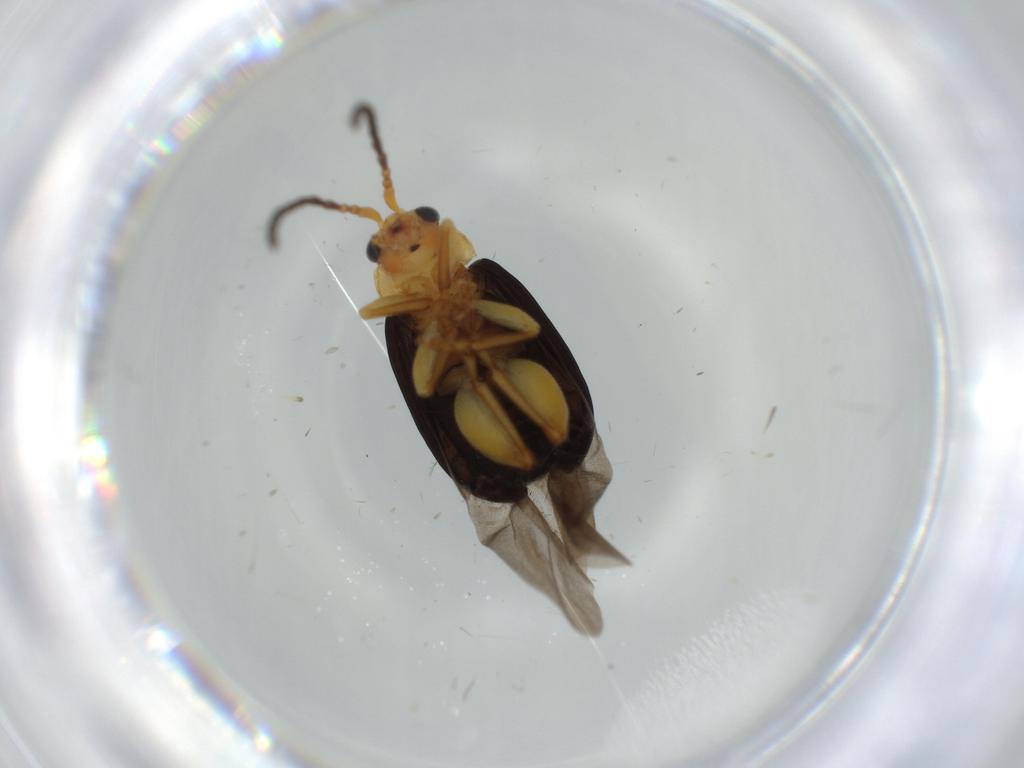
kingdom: Animalia
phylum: Arthropoda
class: Insecta
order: Coleoptera
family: Chrysomelidae
